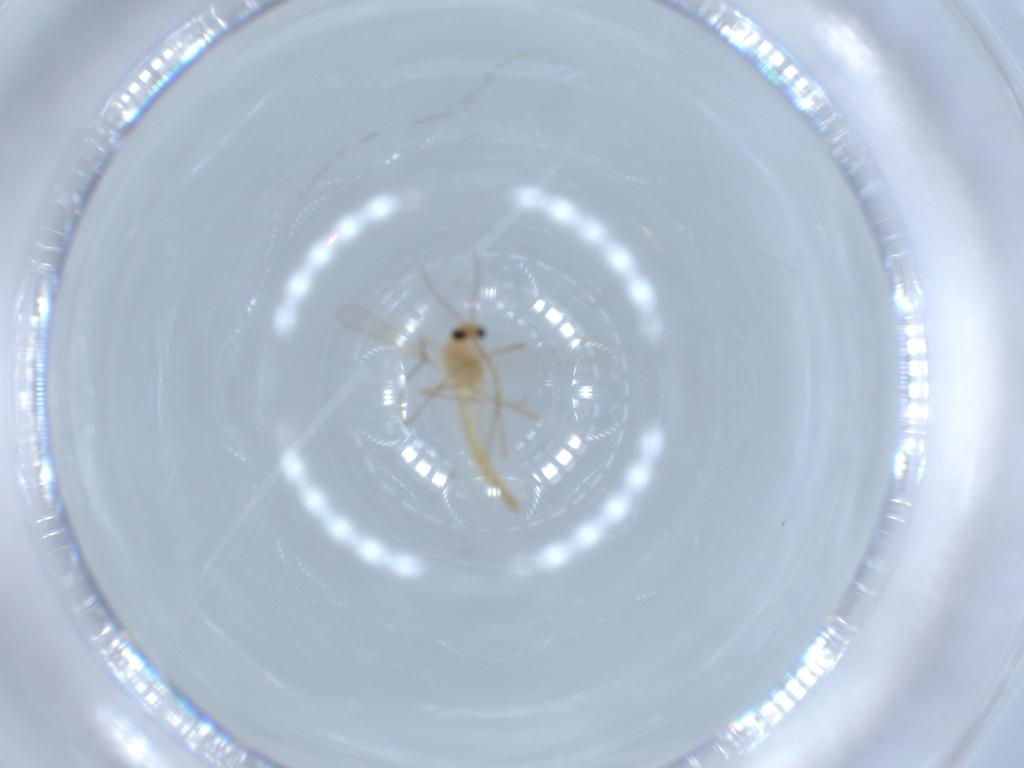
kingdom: Animalia
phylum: Arthropoda
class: Insecta
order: Diptera
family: Chironomidae
